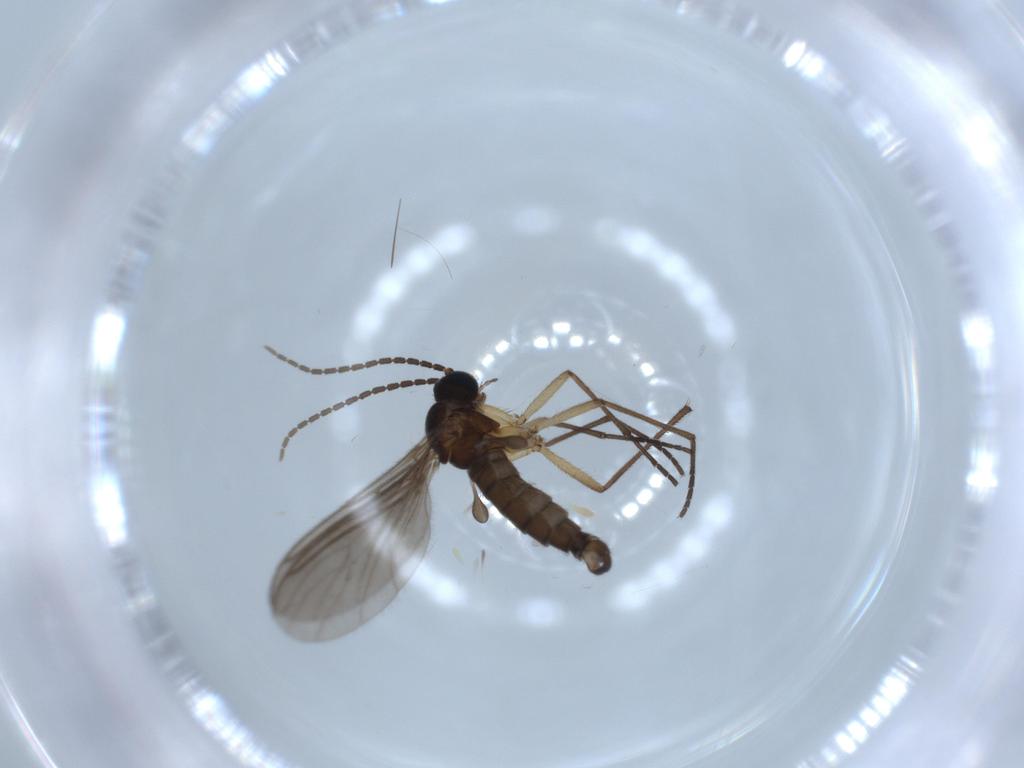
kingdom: Animalia
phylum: Arthropoda
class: Insecta
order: Diptera
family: Sciaridae
